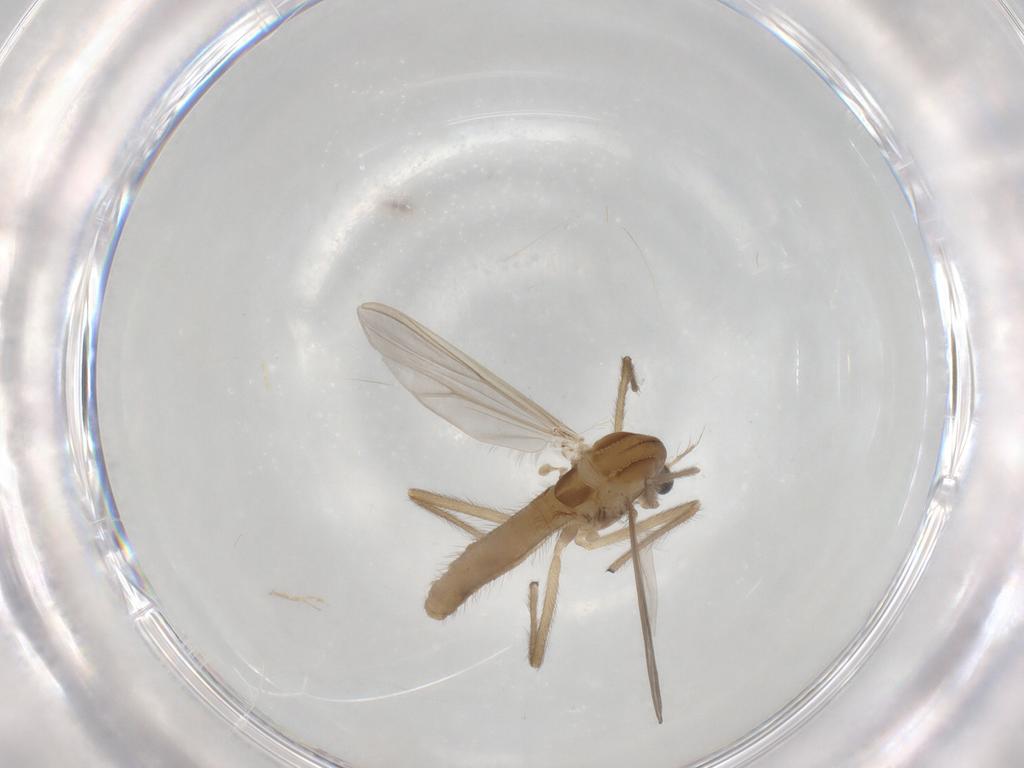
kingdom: Animalia
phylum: Arthropoda
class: Insecta
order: Diptera
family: Chironomidae
